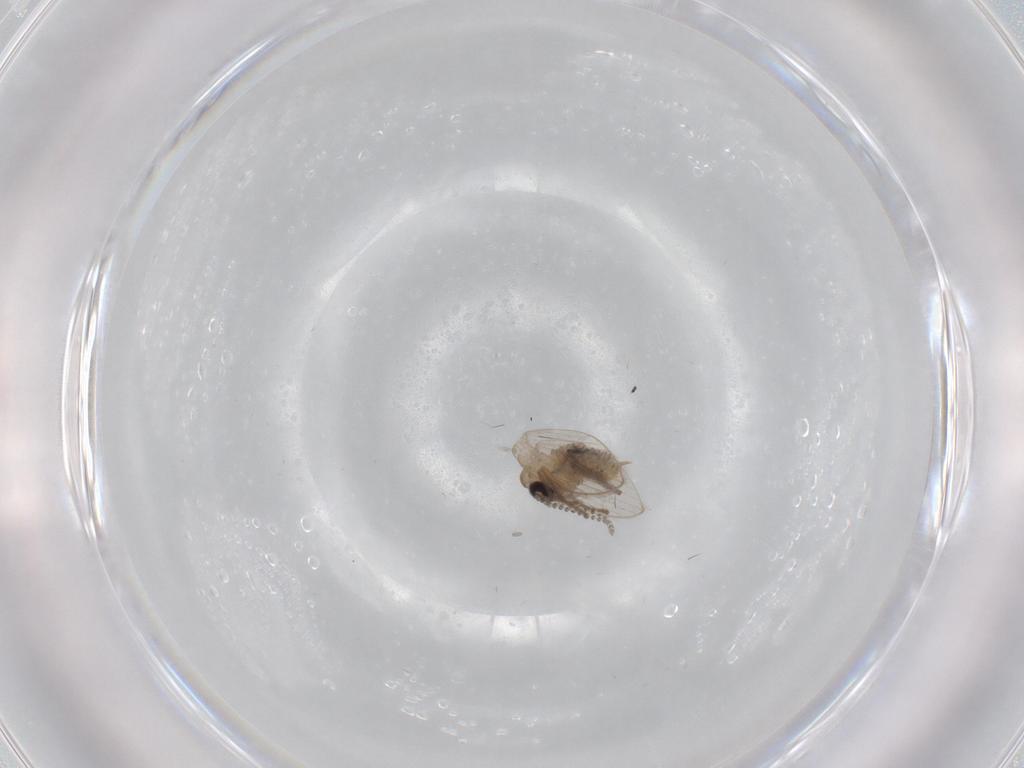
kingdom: Animalia
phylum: Arthropoda
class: Insecta
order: Diptera
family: Psychodidae
